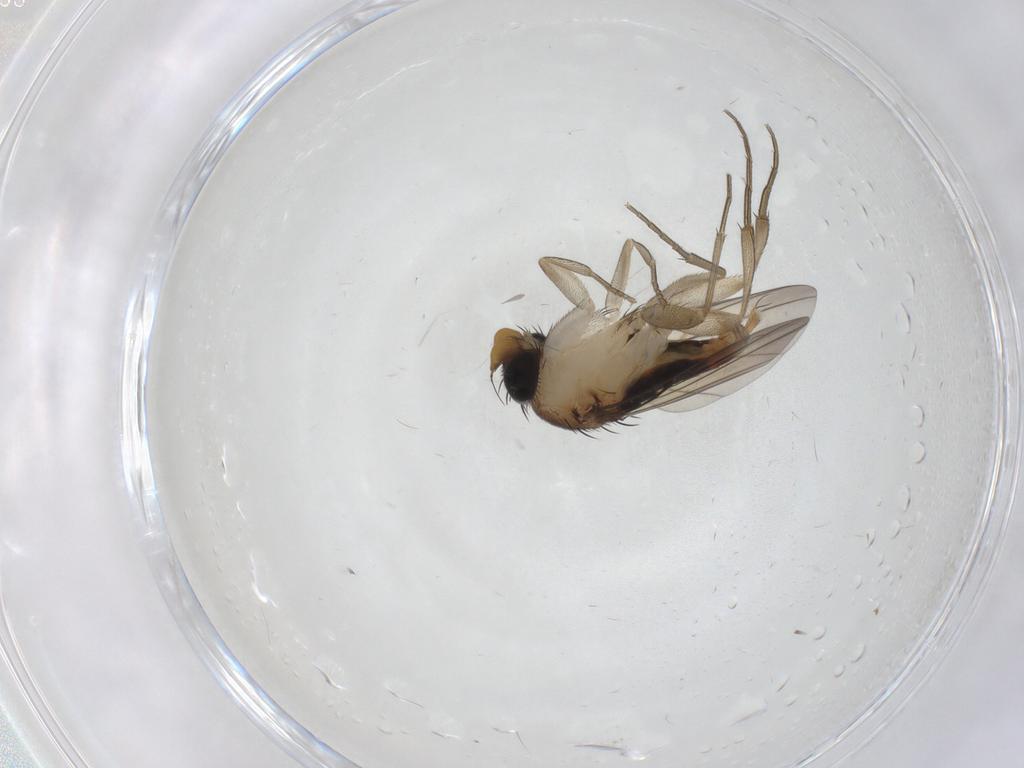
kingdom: Animalia
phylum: Arthropoda
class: Insecta
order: Diptera
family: Phoridae
